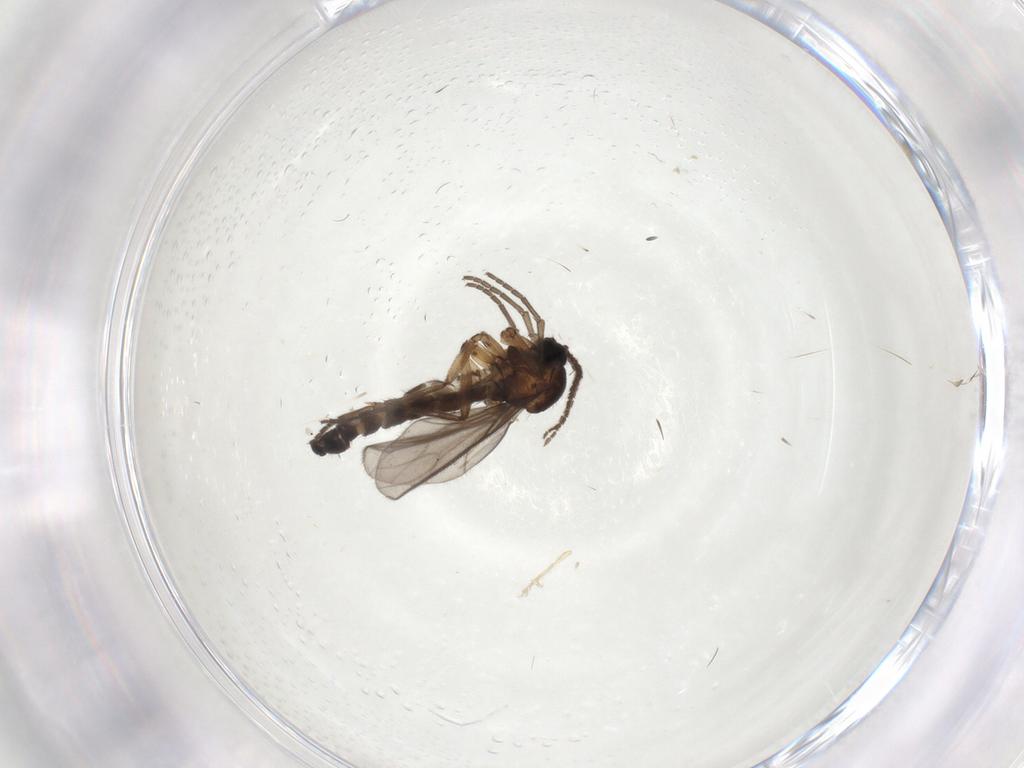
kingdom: Animalia
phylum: Arthropoda
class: Insecta
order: Diptera
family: Sciaridae
